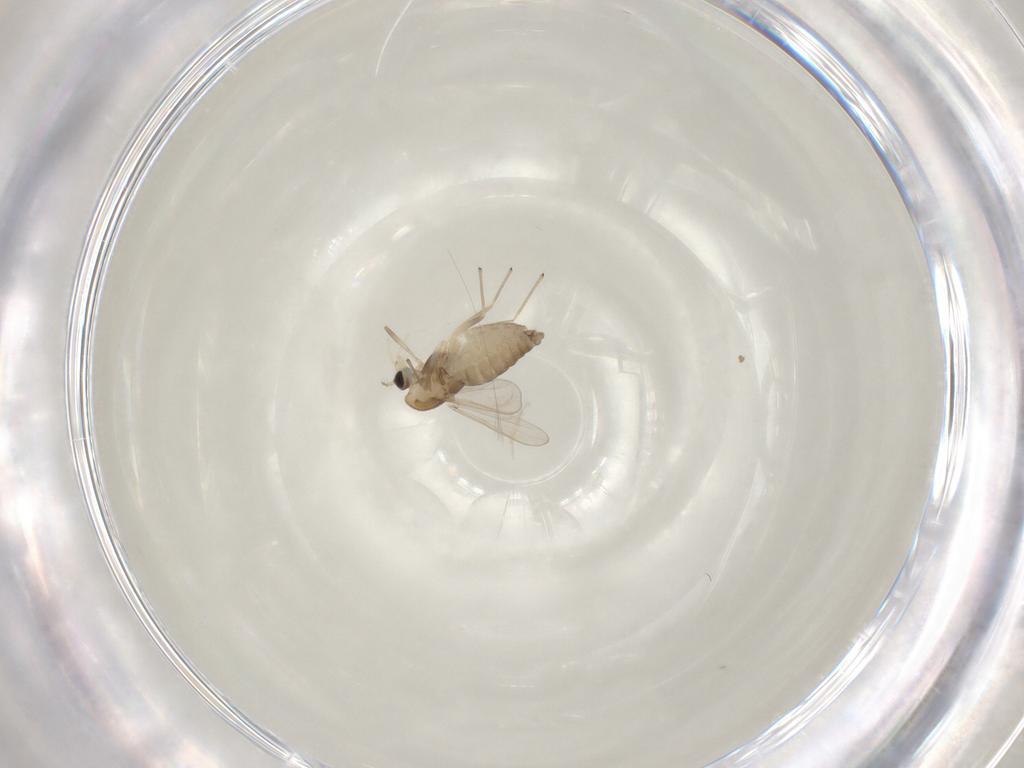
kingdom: Animalia
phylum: Arthropoda
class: Insecta
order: Diptera
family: Chironomidae
